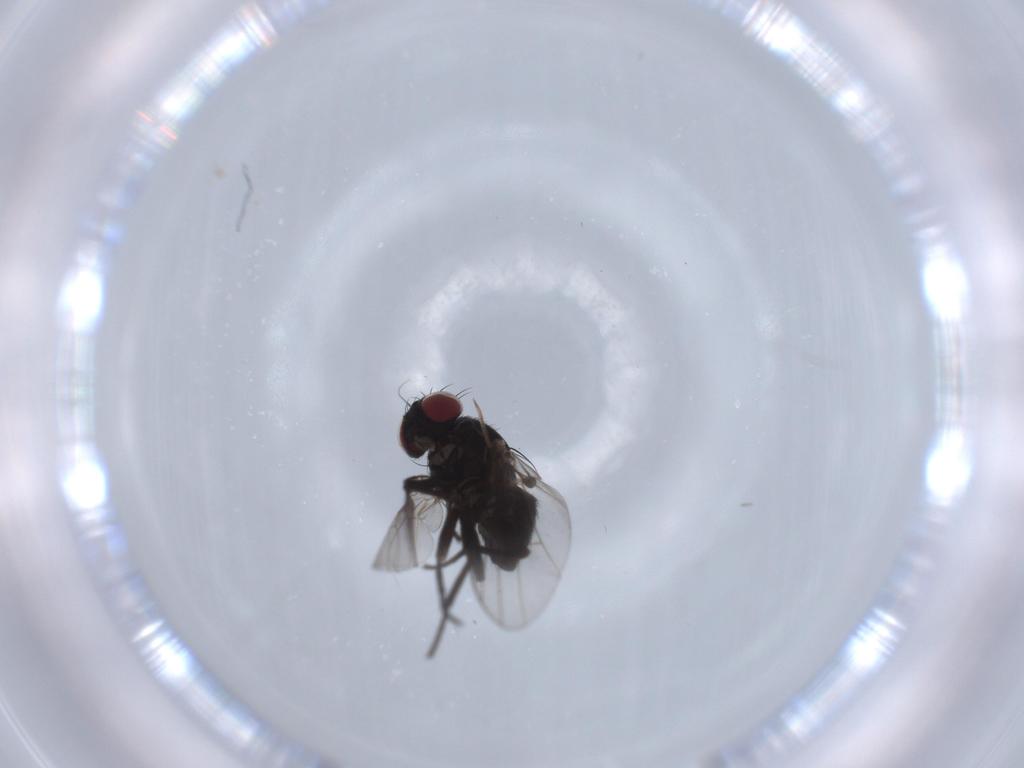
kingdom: Animalia
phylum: Arthropoda
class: Insecta
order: Diptera
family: Agromyzidae
